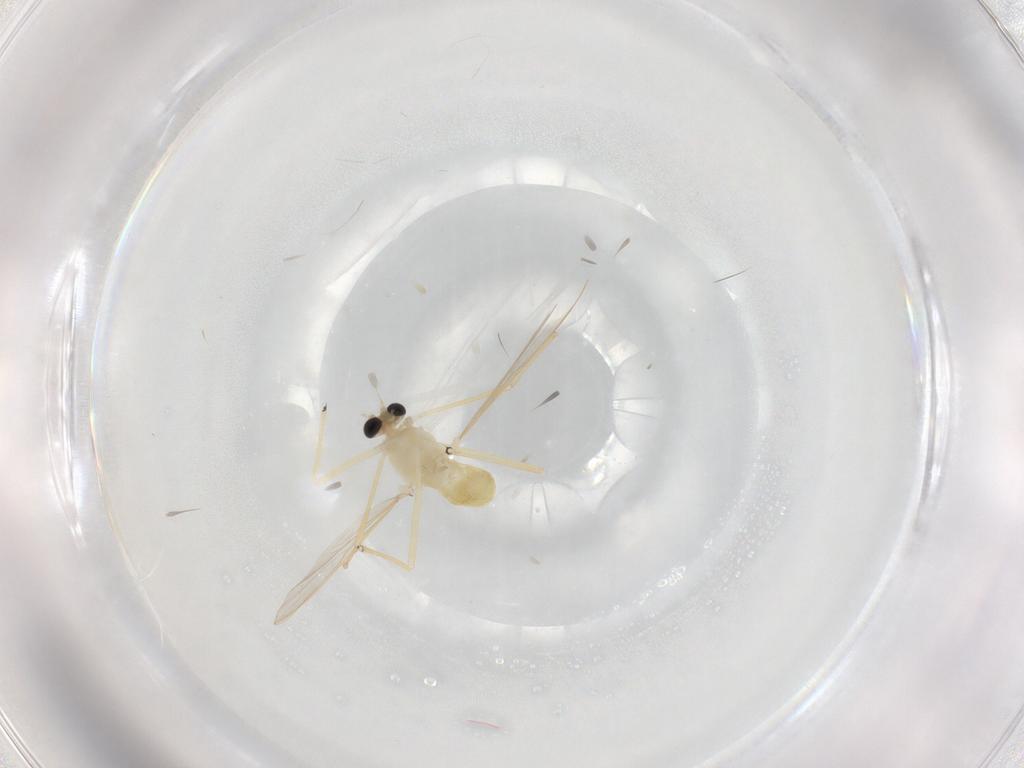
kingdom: Animalia
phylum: Arthropoda
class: Insecta
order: Diptera
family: Chironomidae
